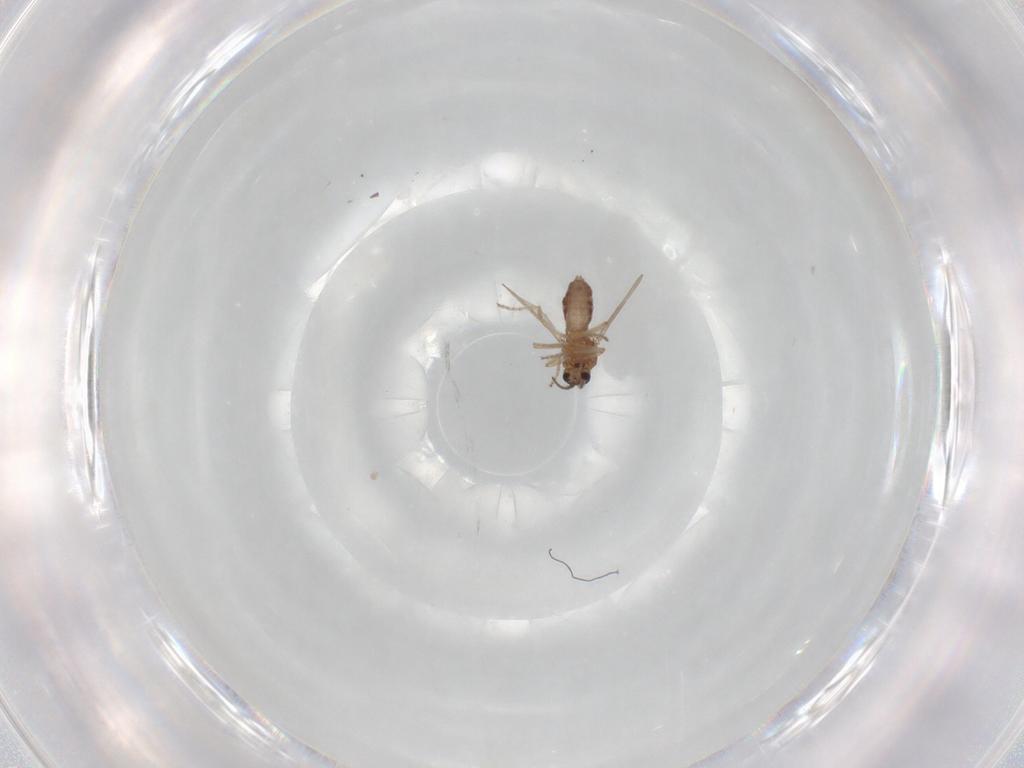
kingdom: Animalia
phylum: Arthropoda
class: Insecta
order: Diptera
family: Ceratopogonidae
